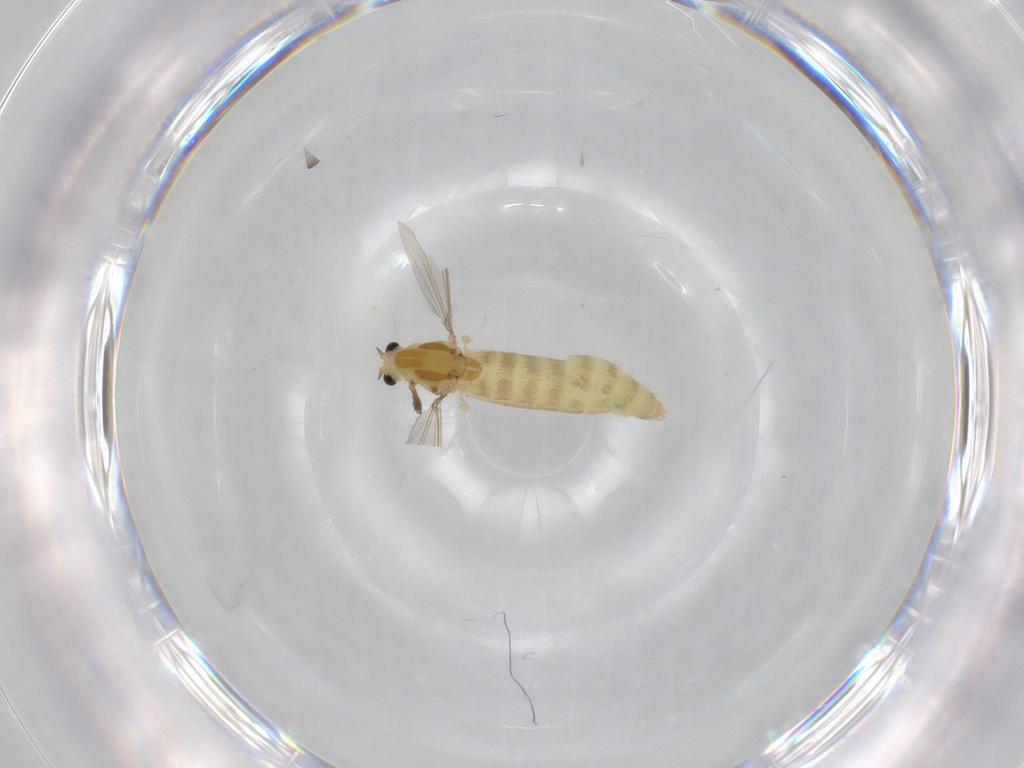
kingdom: Animalia
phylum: Arthropoda
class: Insecta
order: Diptera
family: Chironomidae
